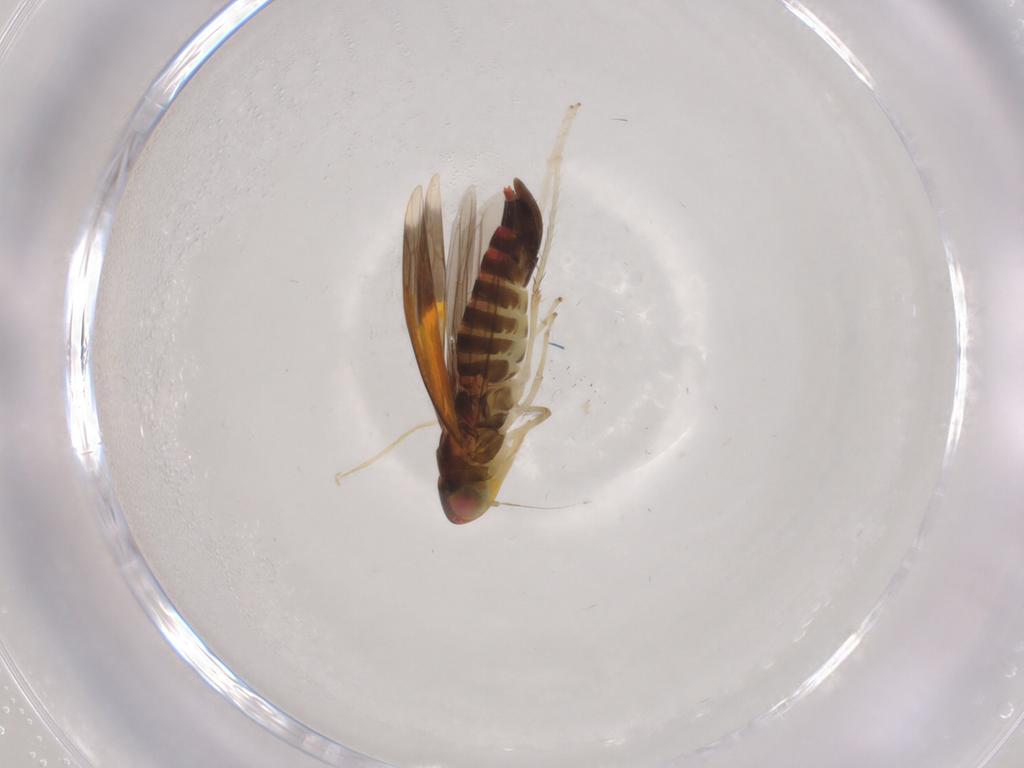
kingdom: Animalia
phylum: Arthropoda
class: Insecta
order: Hemiptera
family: Cicadellidae
